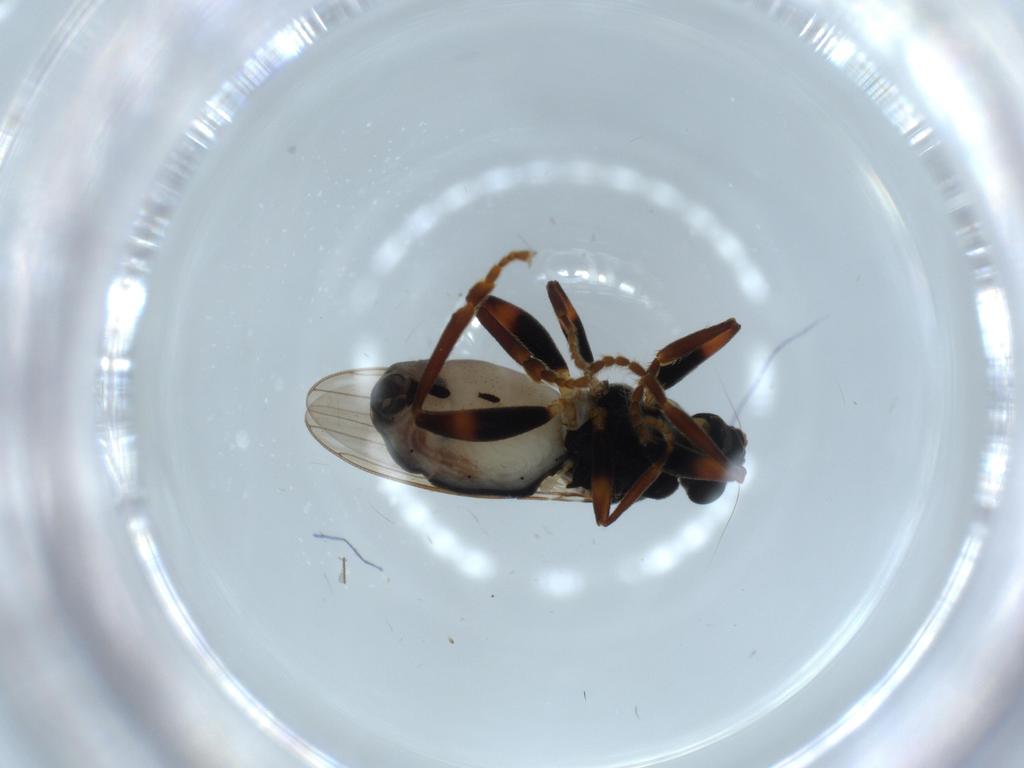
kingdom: Animalia
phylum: Arthropoda
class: Insecta
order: Diptera
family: Sphaeroceridae
